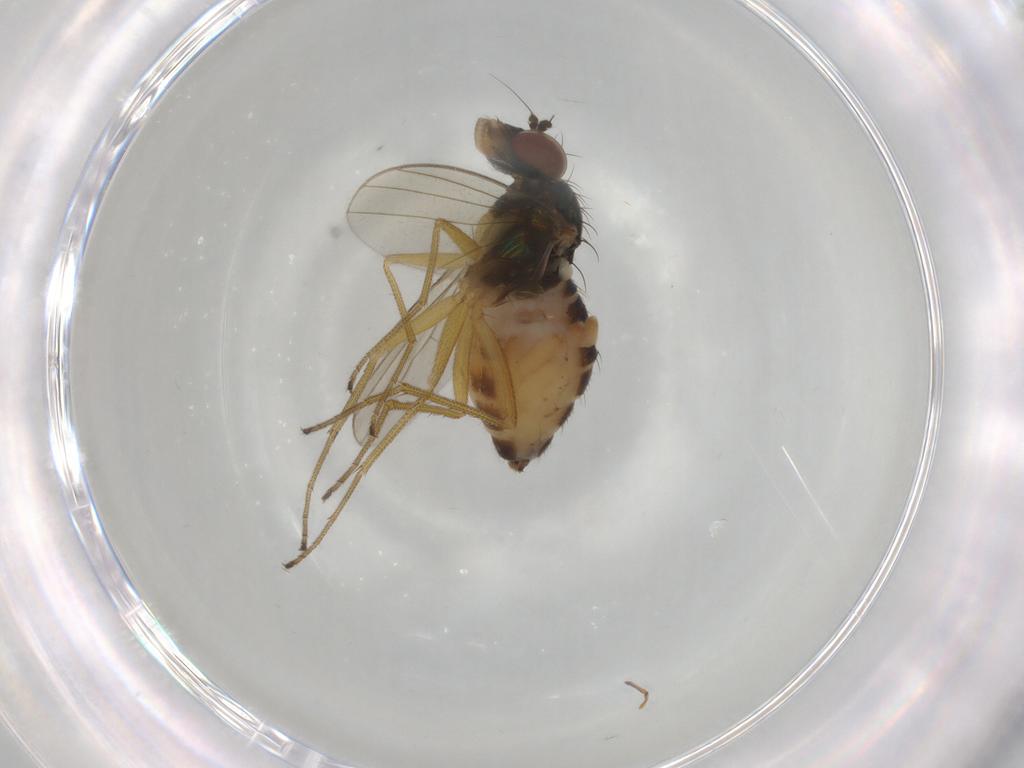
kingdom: Animalia
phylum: Arthropoda
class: Insecta
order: Diptera
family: Dolichopodidae
